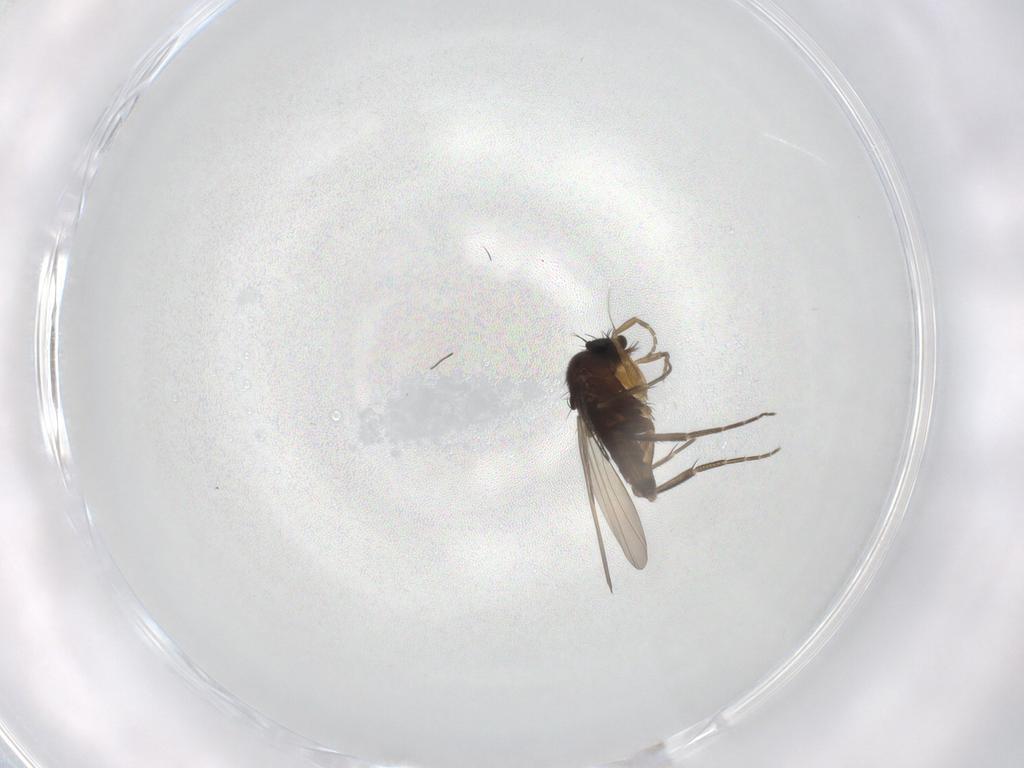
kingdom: Animalia
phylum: Arthropoda
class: Insecta
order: Diptera
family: Phoridae
